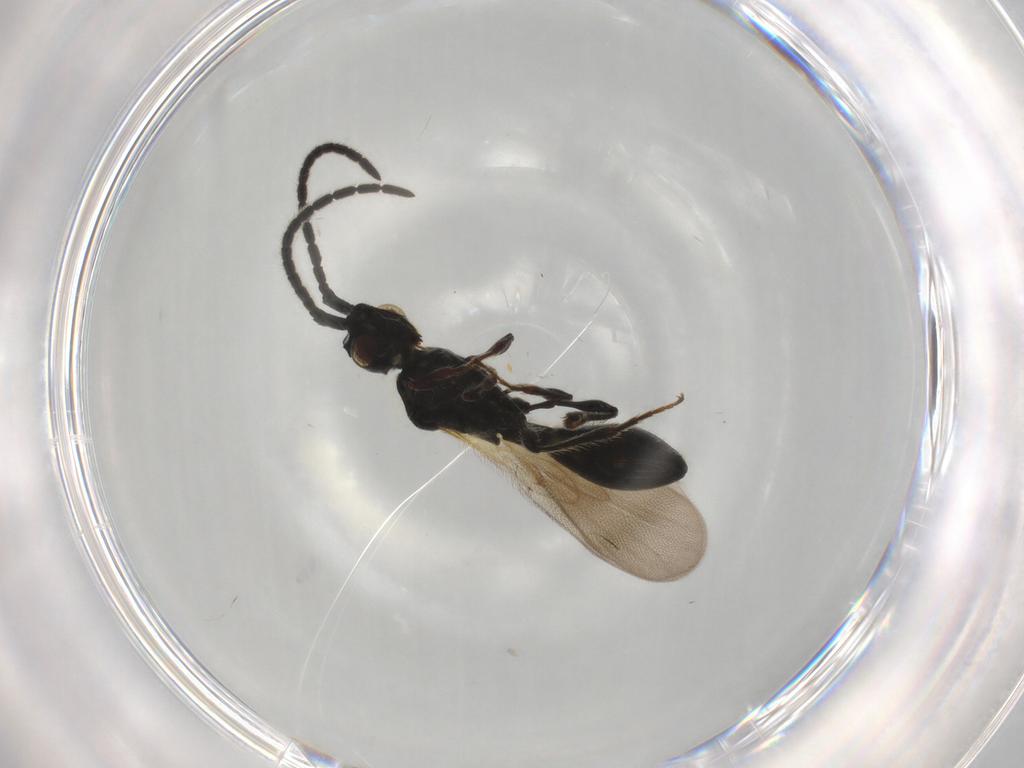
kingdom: Animalia
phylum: Arthropoda
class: Insecta
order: Hymenoptera
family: Diapriidae
